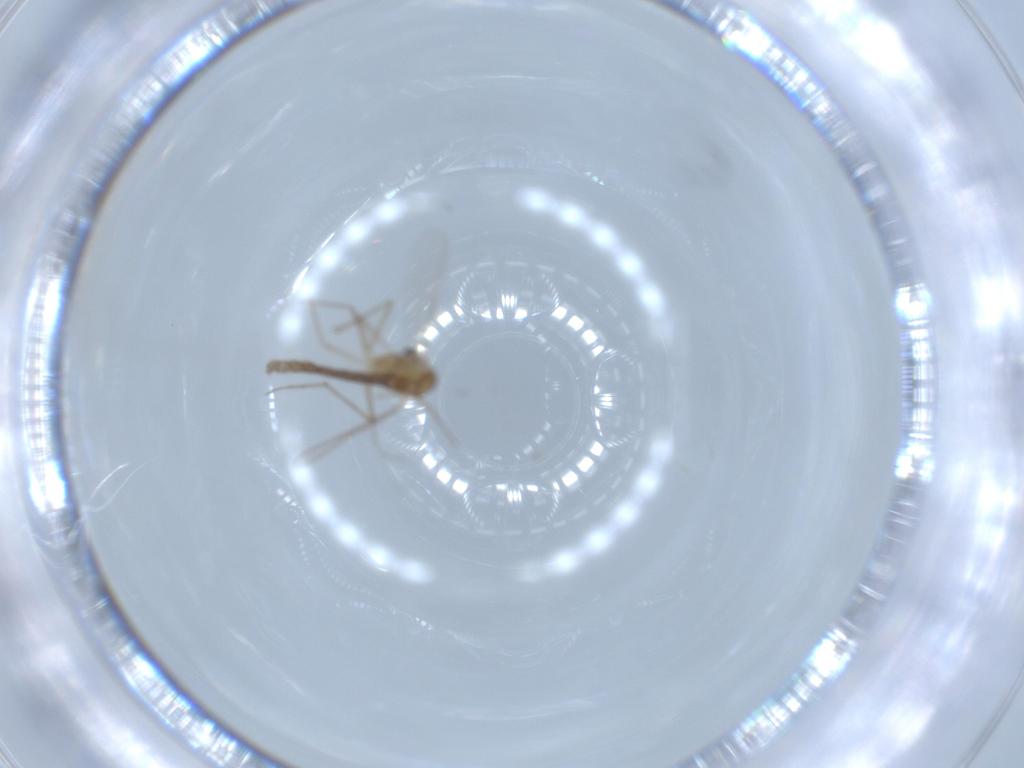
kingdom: Animalia
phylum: Arthropoda
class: Insecta
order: Diptera
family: Chironomidae
